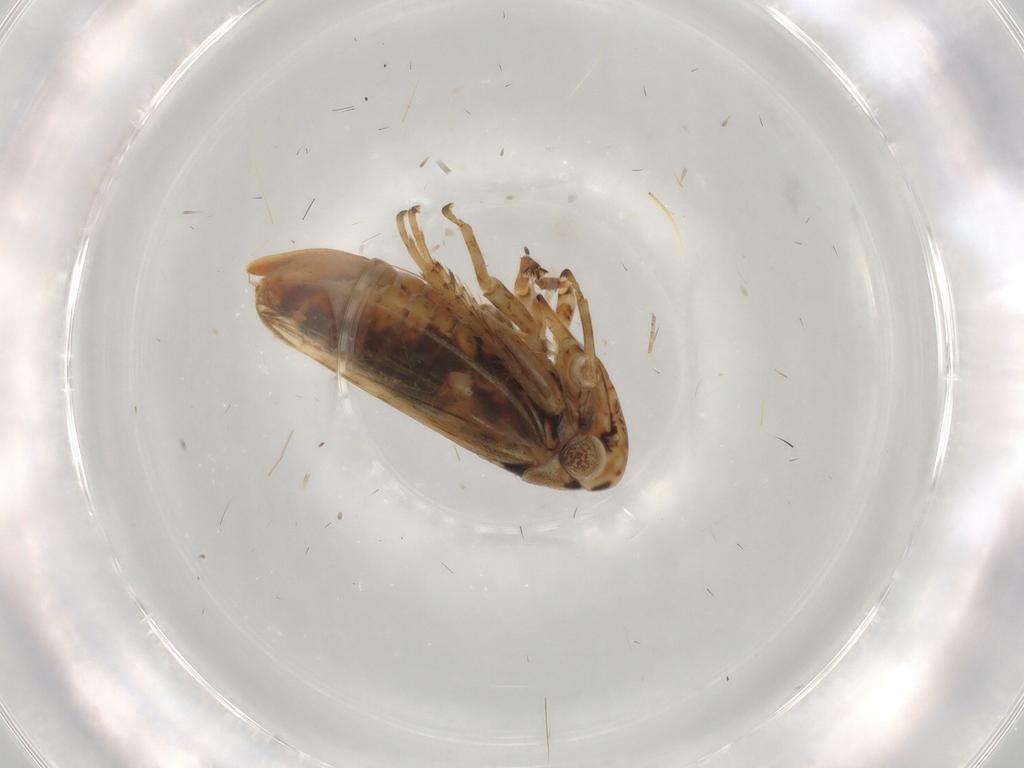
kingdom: Animalia
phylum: Arthropoda
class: Insecta
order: Hemiptera
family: Cicadellidae
